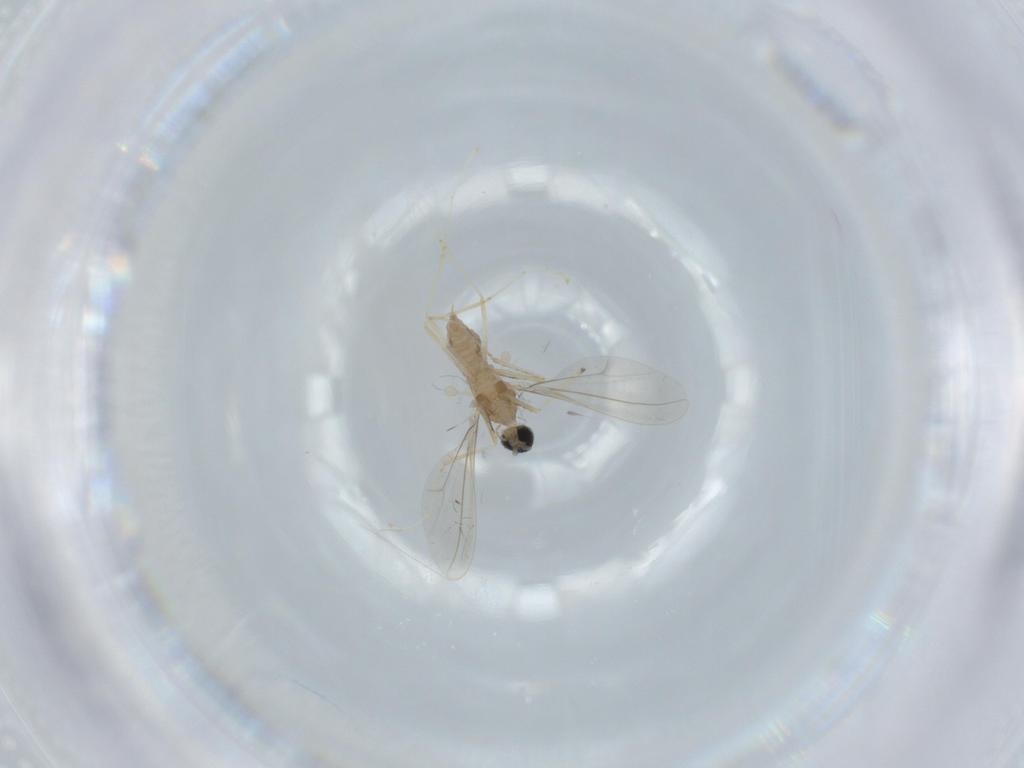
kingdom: Animalia
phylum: Arthropoda
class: Insecta
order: Diptera
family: Cecidomyiidae
